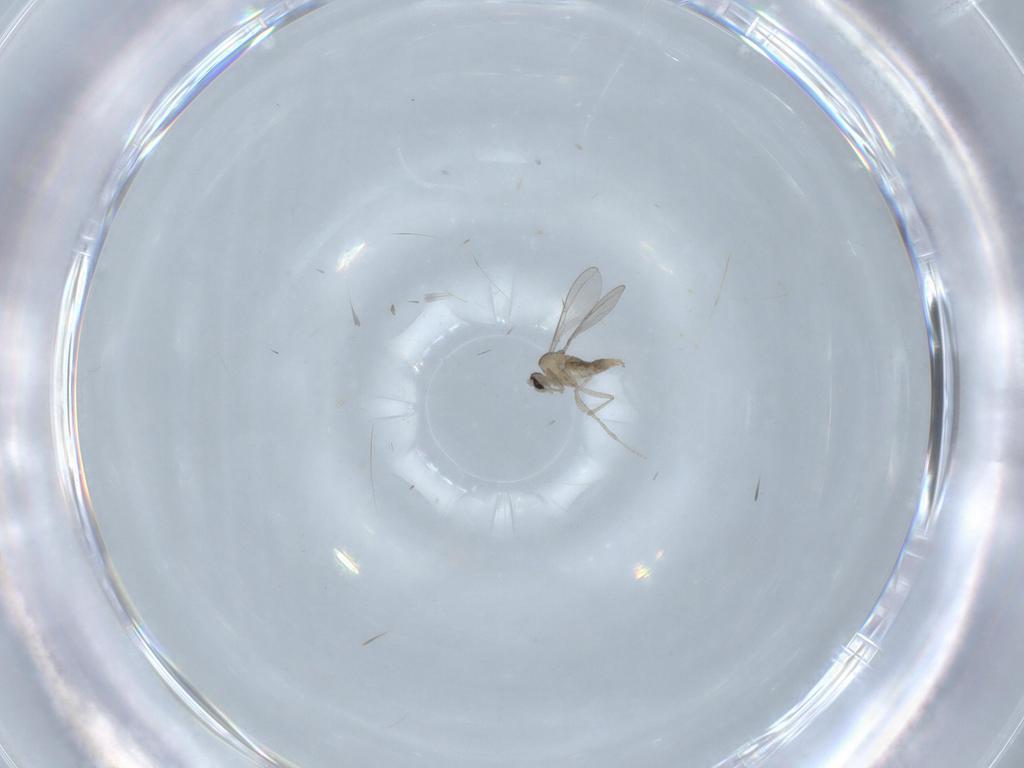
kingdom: Animalia
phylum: Arthropoda
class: Insecta
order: Diptera
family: Cecidomyiidae
